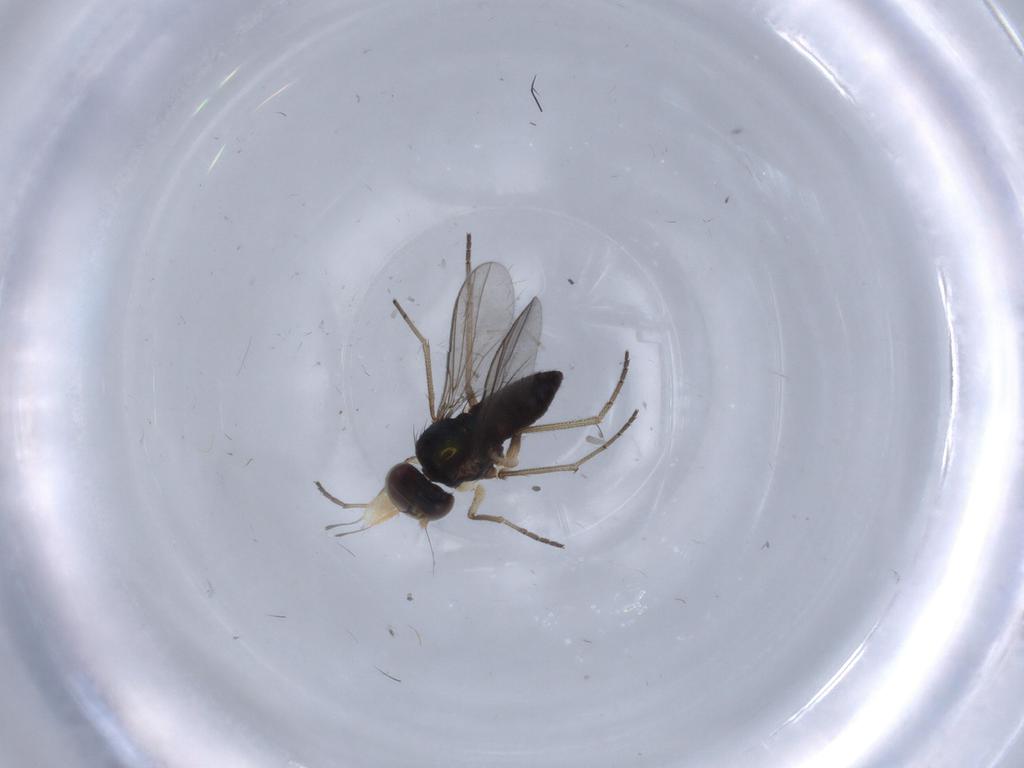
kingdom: Animalia
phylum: Arthropoda
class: Insecta
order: Diptera
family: Dolichopodidae
